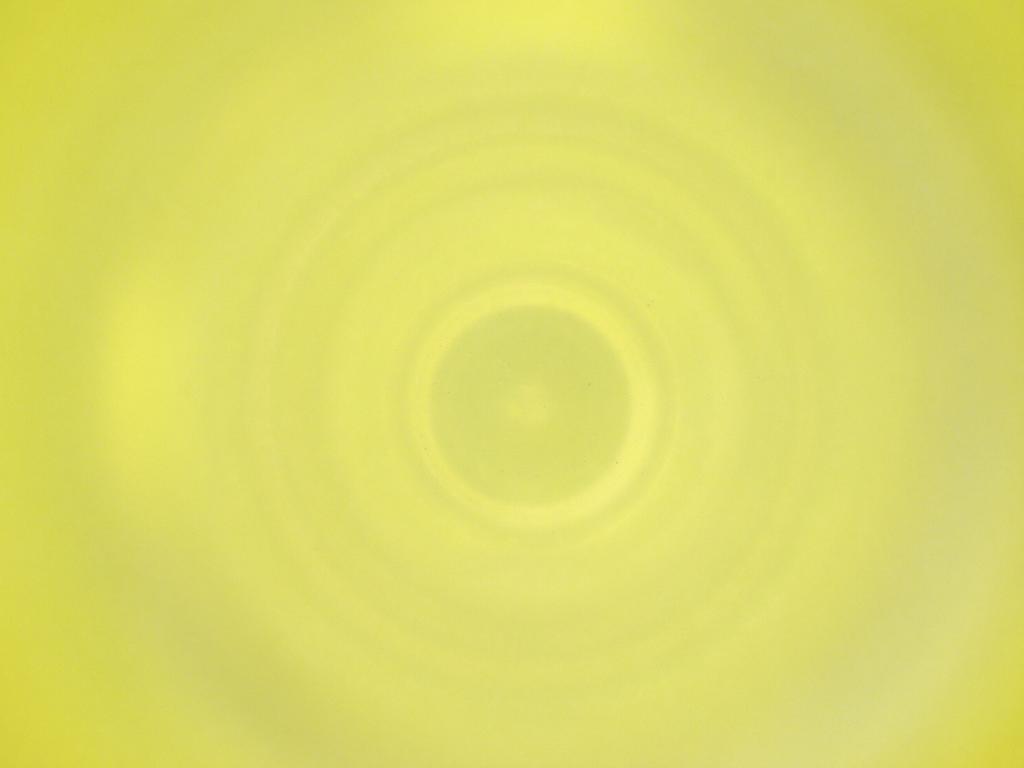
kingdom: Animalia
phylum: Arthropoda
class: Insecta
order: Diptera
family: Cecidomyiidae
